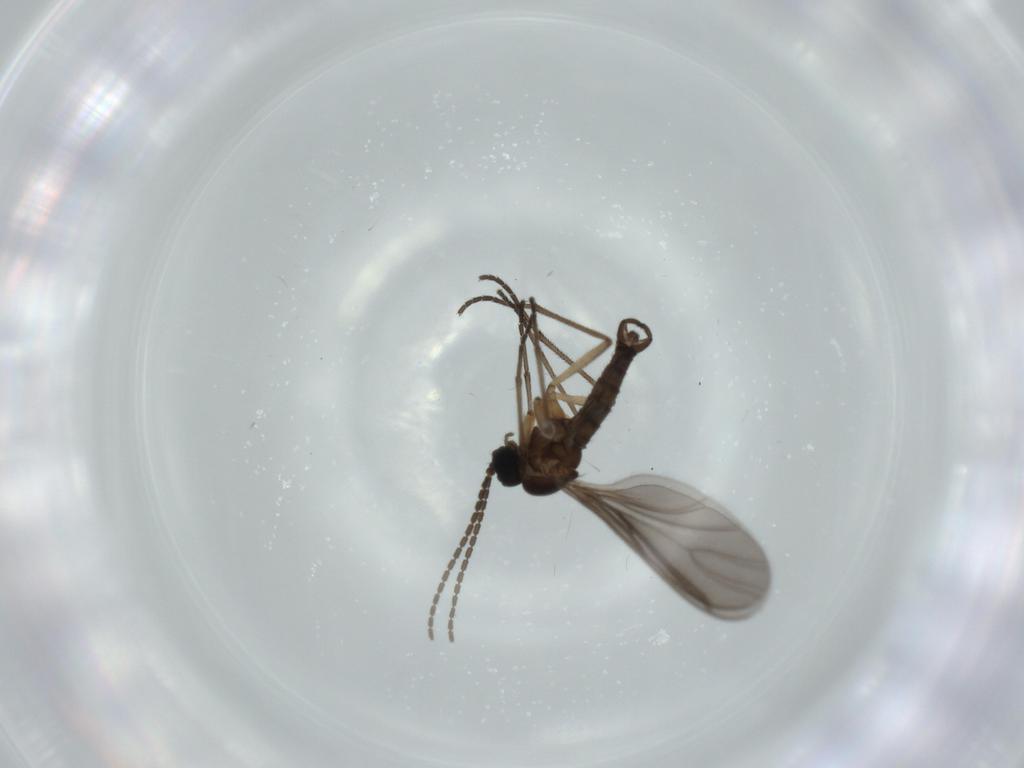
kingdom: Animalia
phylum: Arthropoda
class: Insecta
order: Diptera
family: Sciaridae
